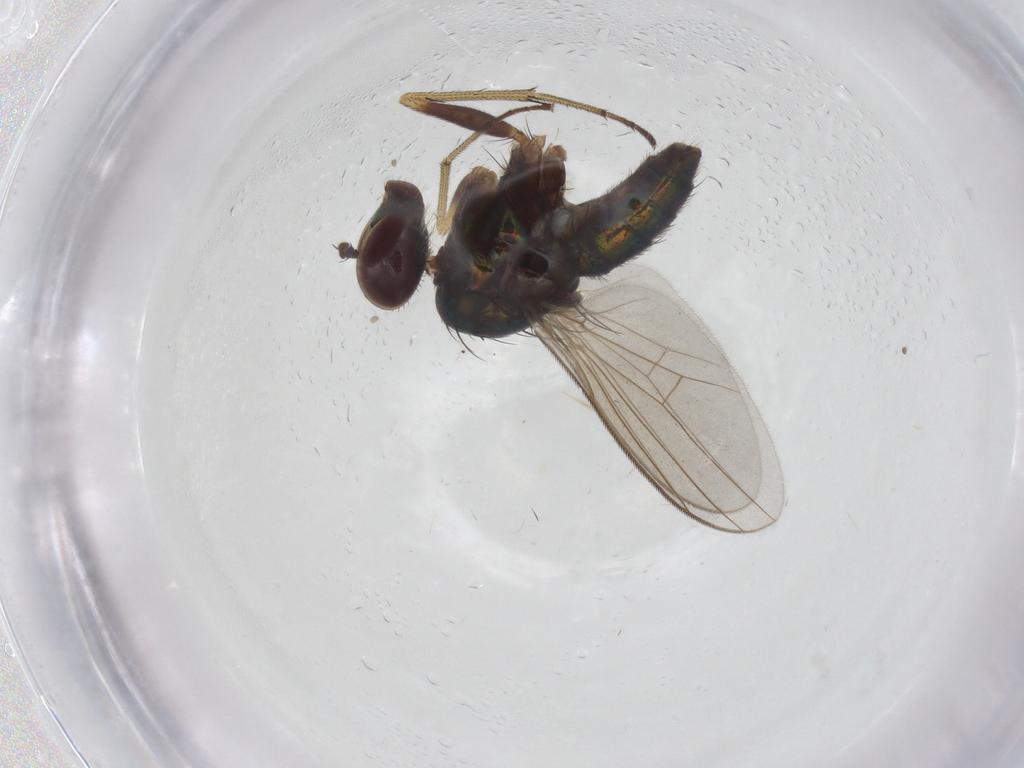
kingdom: Animalia
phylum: Arthropoda
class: Insecta
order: Diptera
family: Dolichopodidae
